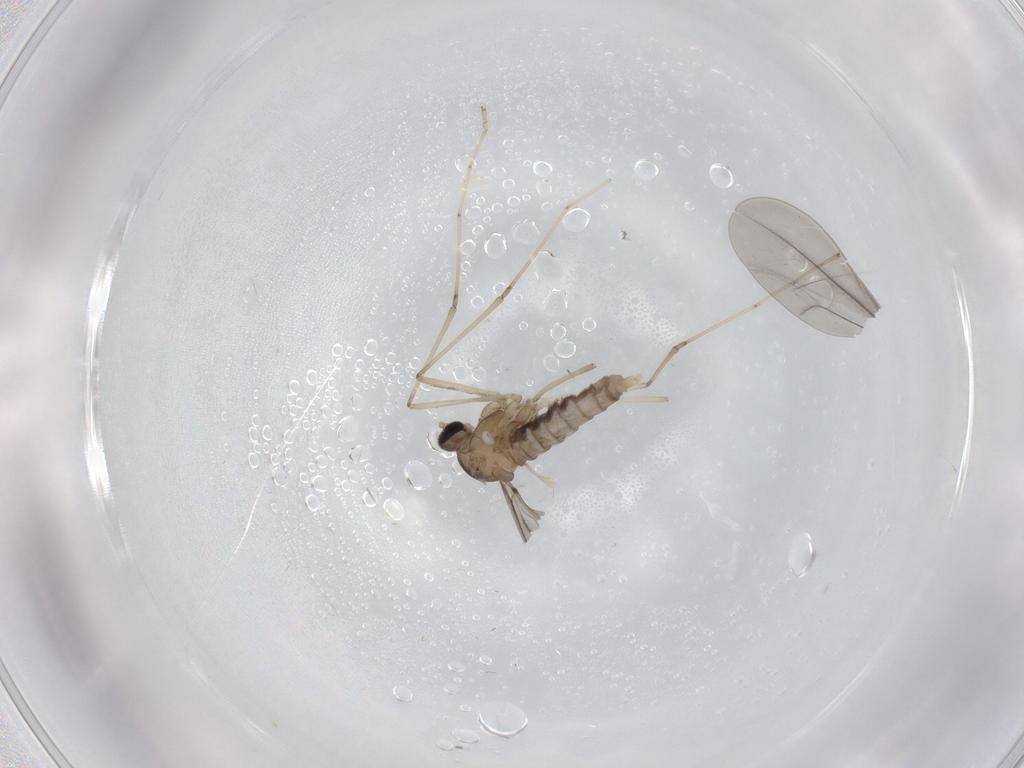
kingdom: Animalia
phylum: Arthropoda
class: Insecta
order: Diptera
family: Cecidomyiidae
